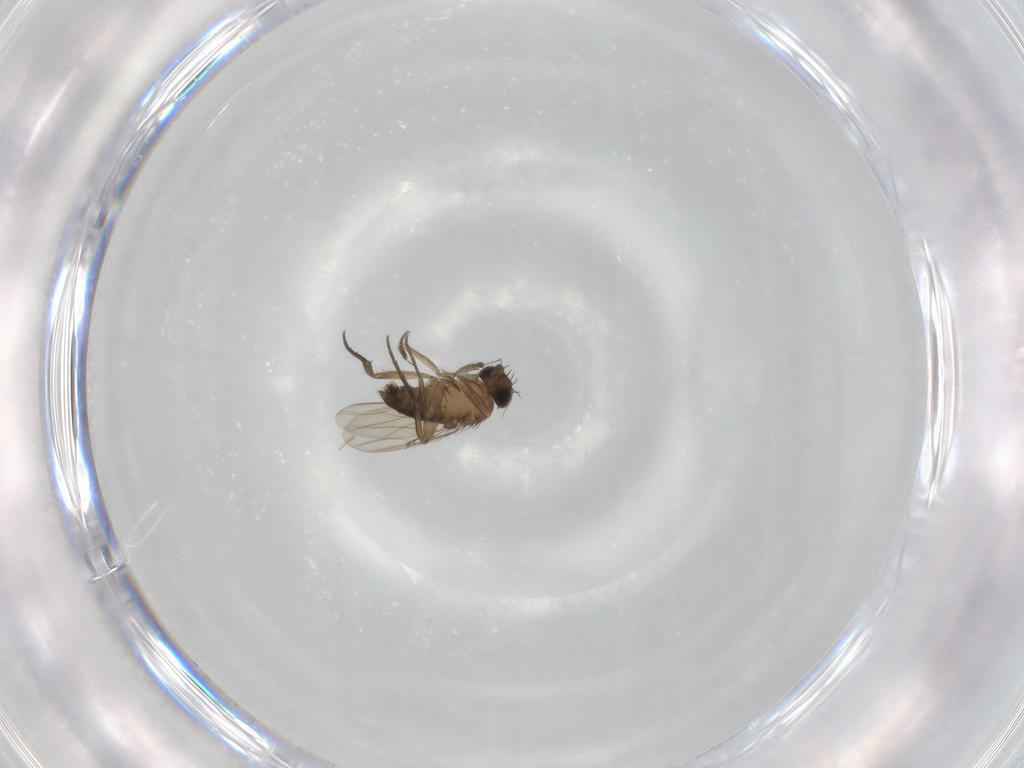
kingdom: Animalia
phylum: Arthropoda
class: Insecta
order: Diptera
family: Phoridae
